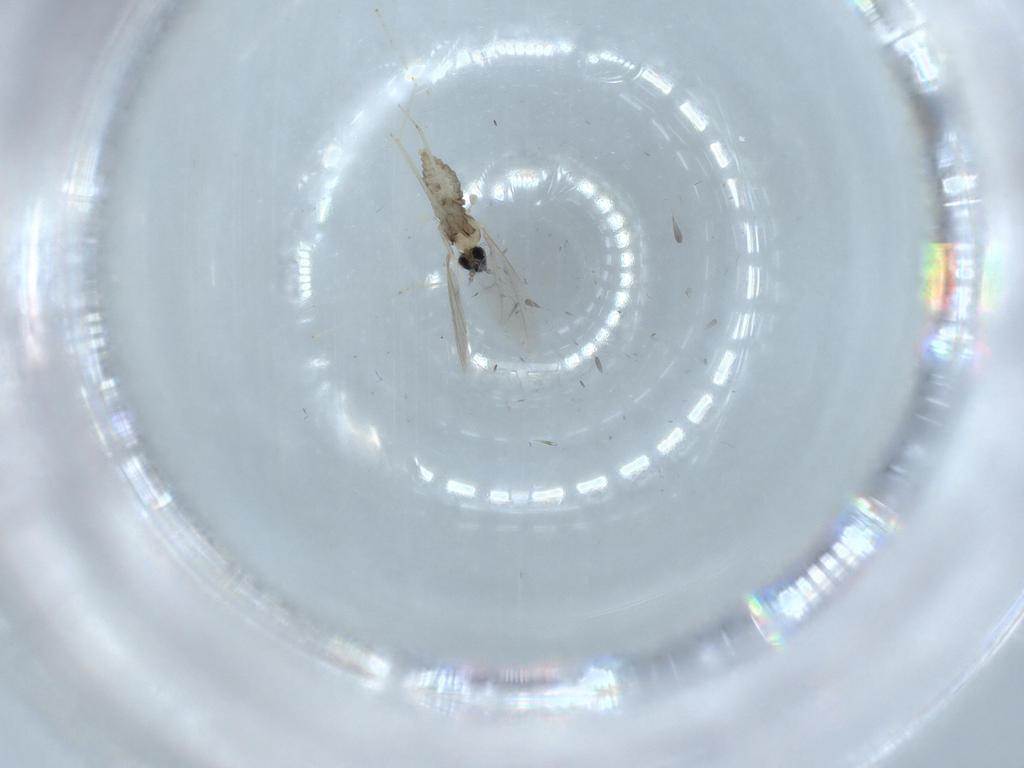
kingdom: Animalia
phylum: Arthropoda
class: Insecta
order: Diptera
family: Cecidomyiidae
